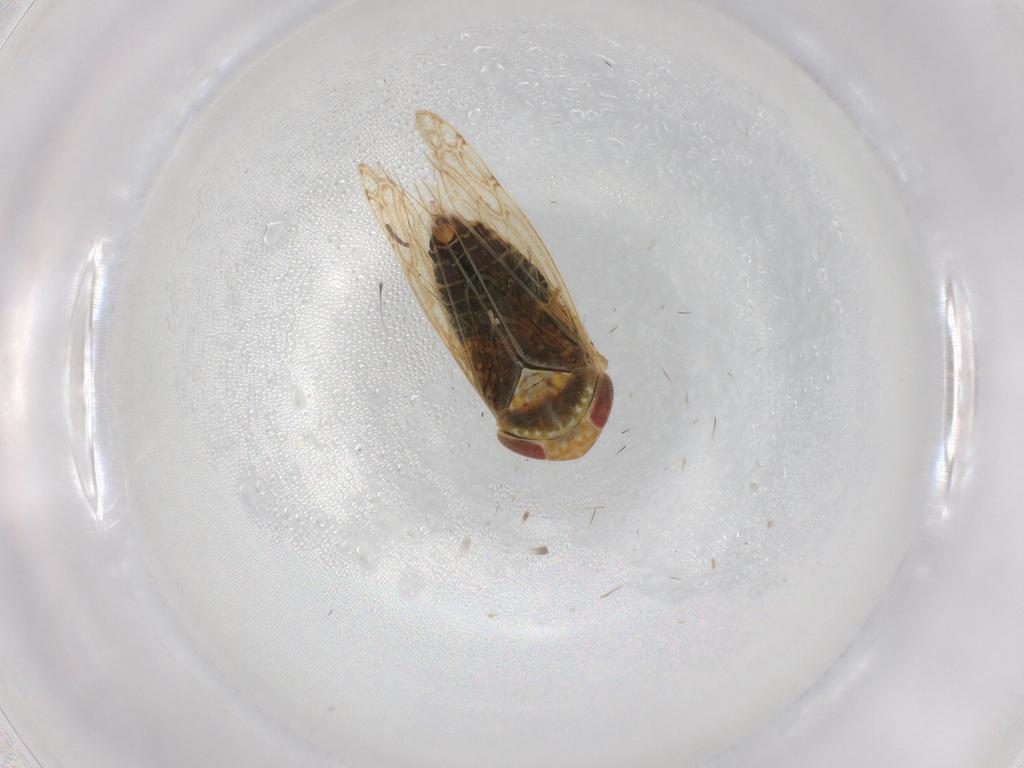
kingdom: Animalia
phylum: Arthropoda
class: Insecta
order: Hemiptera
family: Cicadellidae
